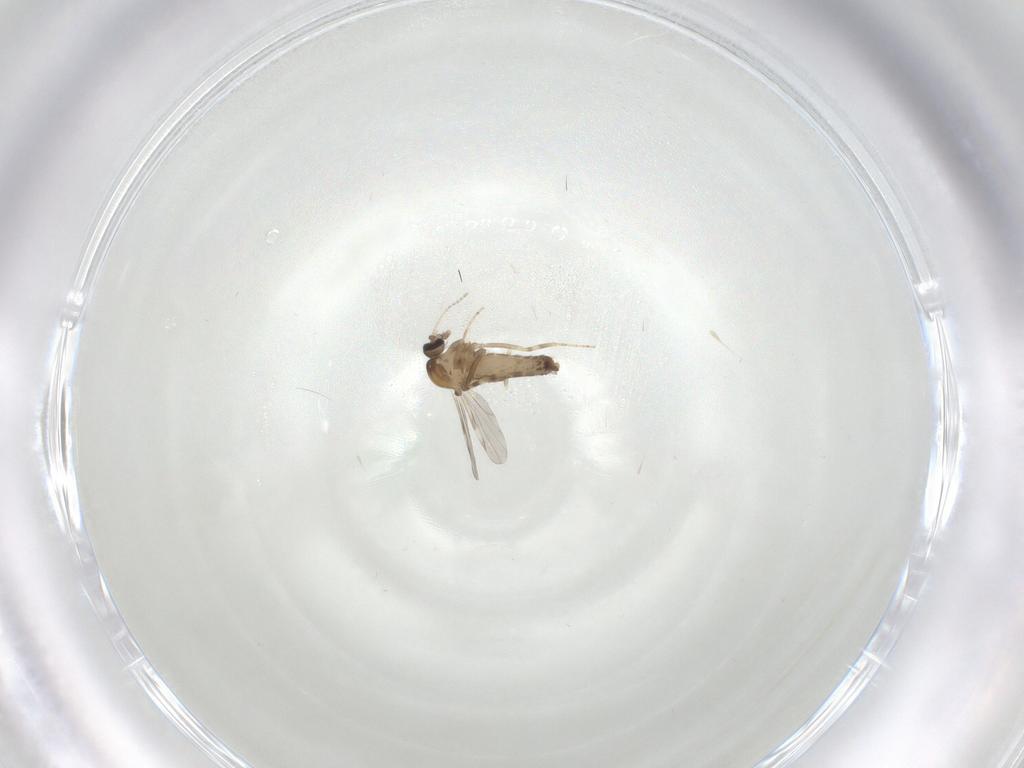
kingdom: Animalia
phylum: Arthropoda
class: Insecta
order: Diptera
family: Ceratopogonidae
